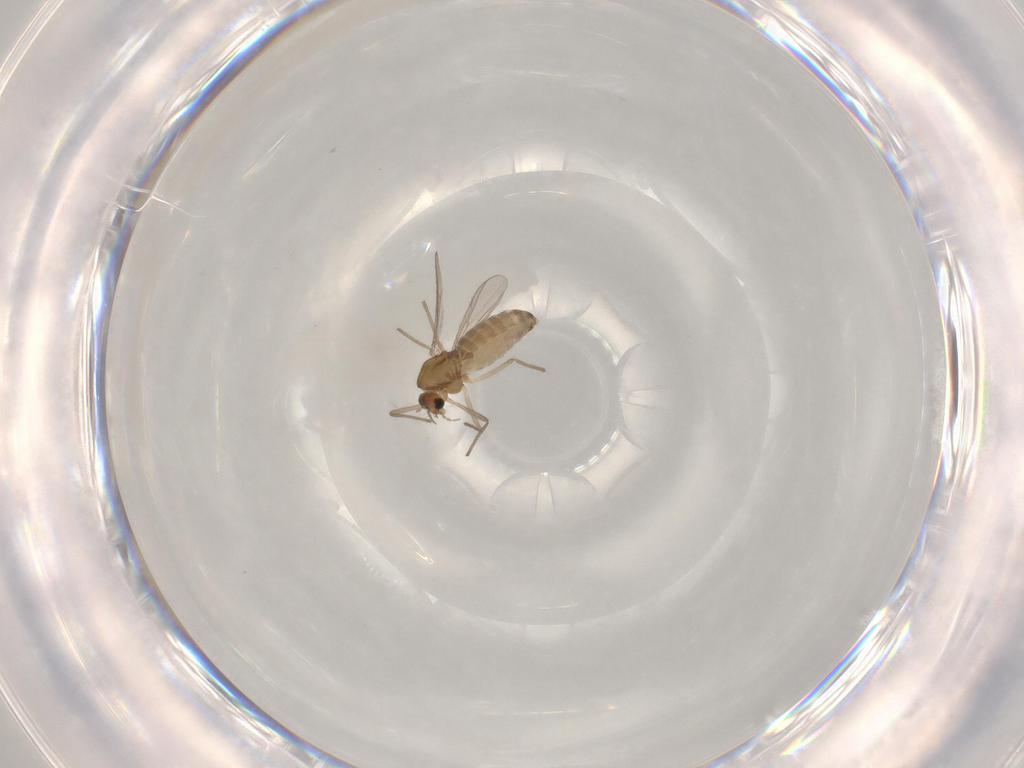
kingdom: Animalia
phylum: Arthropoda
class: Insecta
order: Diptera
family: Chironomidae
